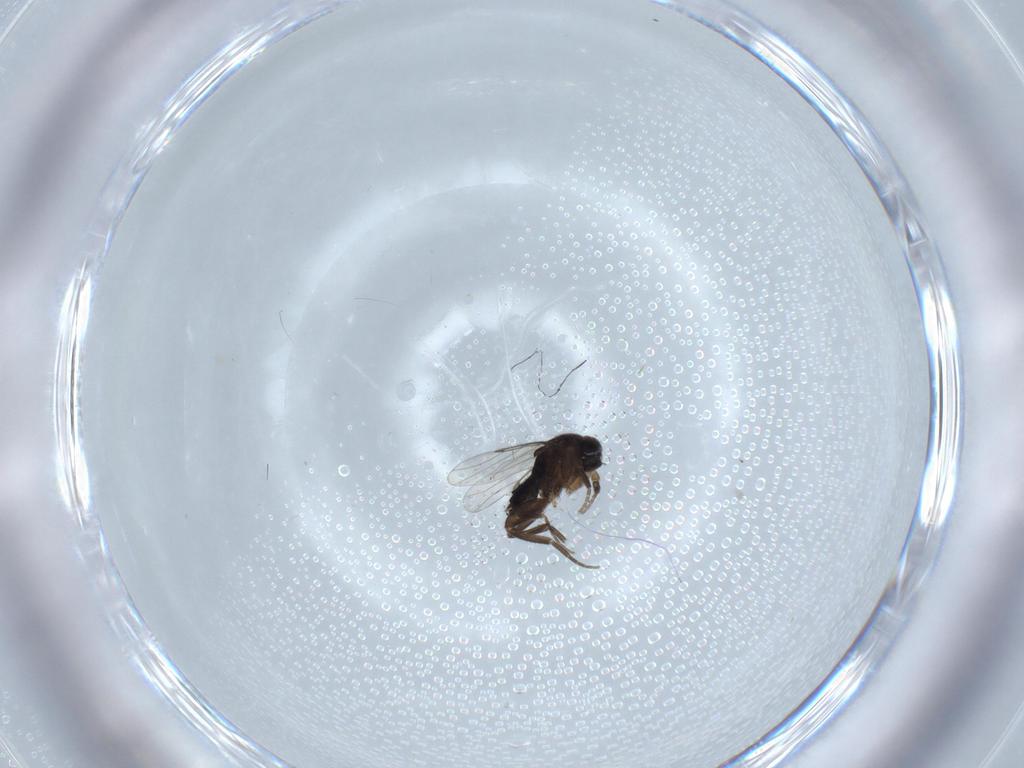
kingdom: Animalia
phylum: Arthropoda
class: Insecta
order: Diptera
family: Phoridae
